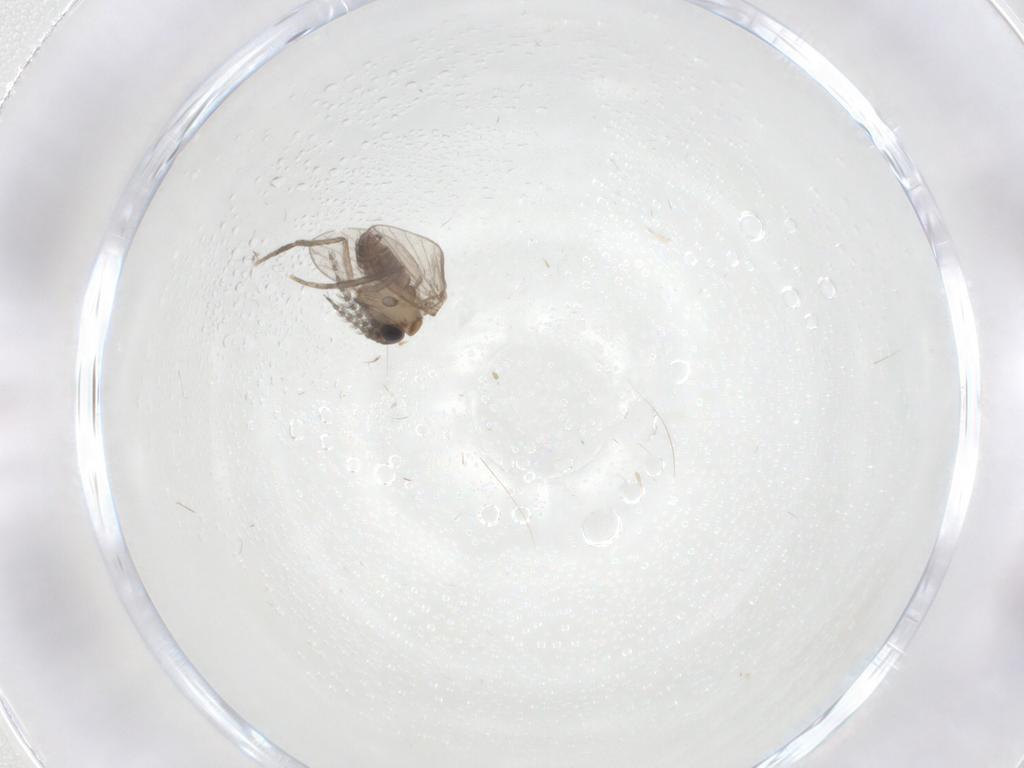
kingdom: Animalia
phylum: Arthropoda
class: Insecta
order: Diptera
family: Psychodidae
